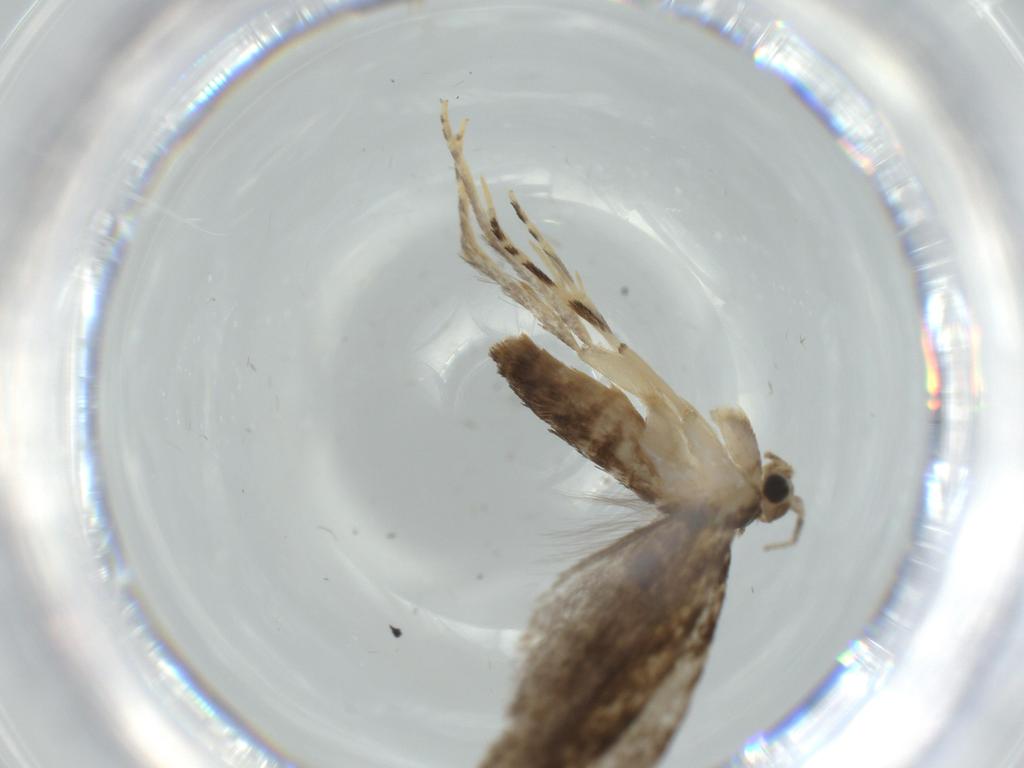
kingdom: Animalia
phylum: Arthropoda
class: Insecta
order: Lepidoptera
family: Tineidae
